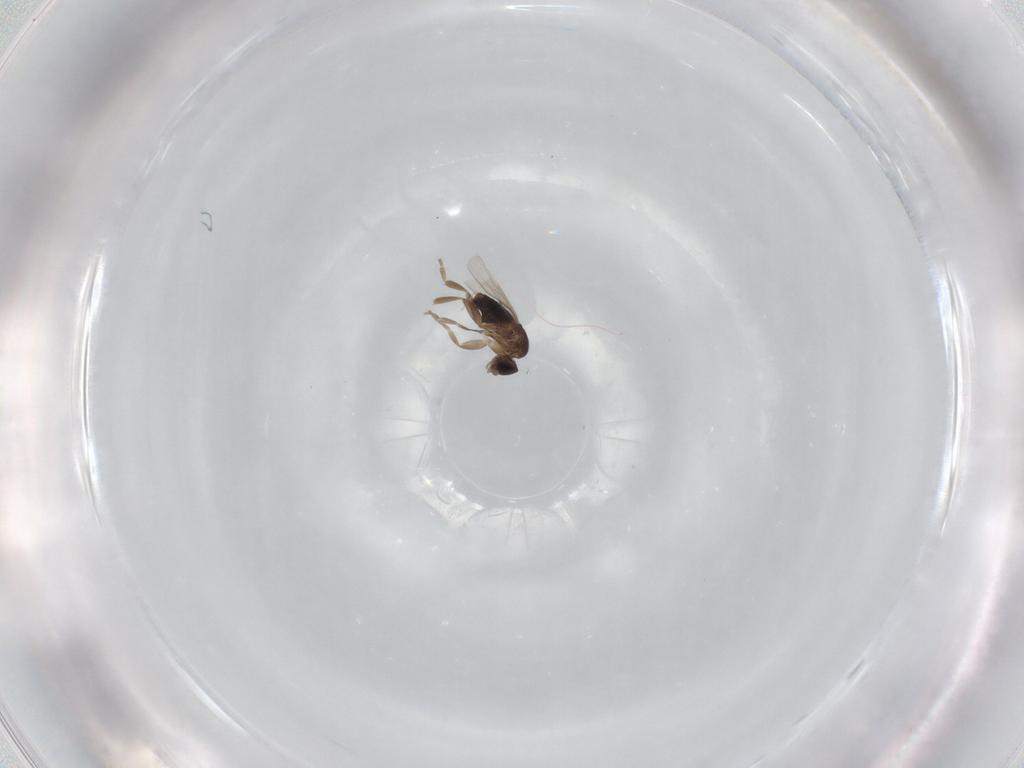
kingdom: Animalia
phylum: Arthropoda
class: Insecta
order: Diptera
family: Phoridae
